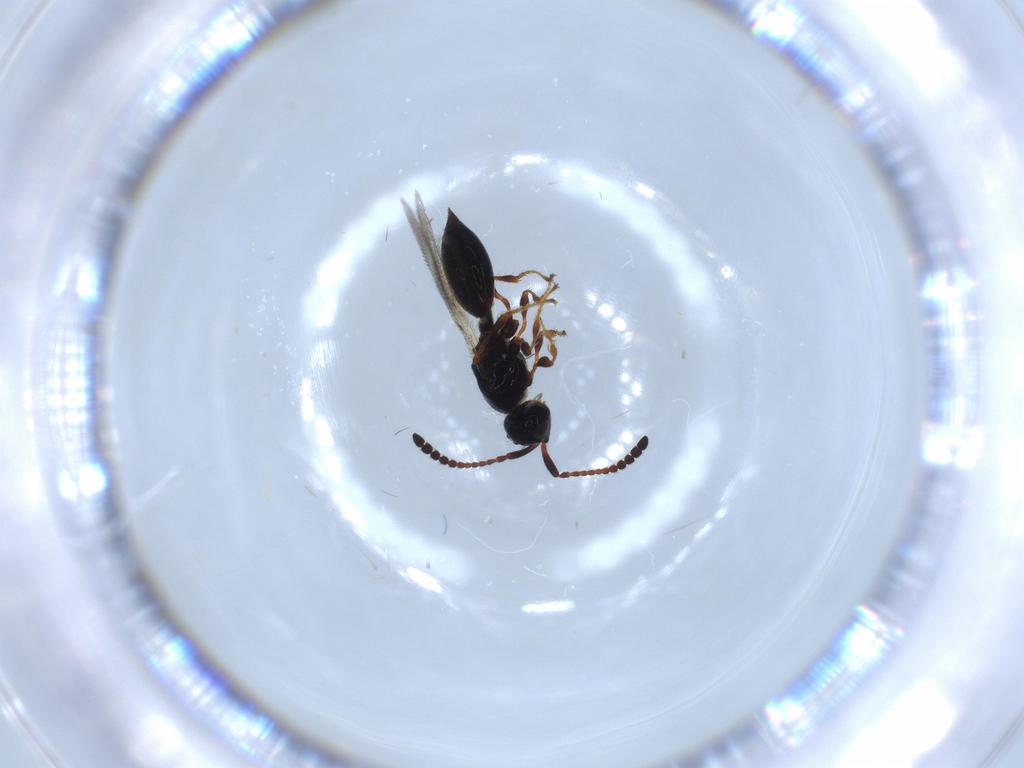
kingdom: Animalia
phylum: Arthropoda
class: Insecta
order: Hymenoptera
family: Diapriidae
